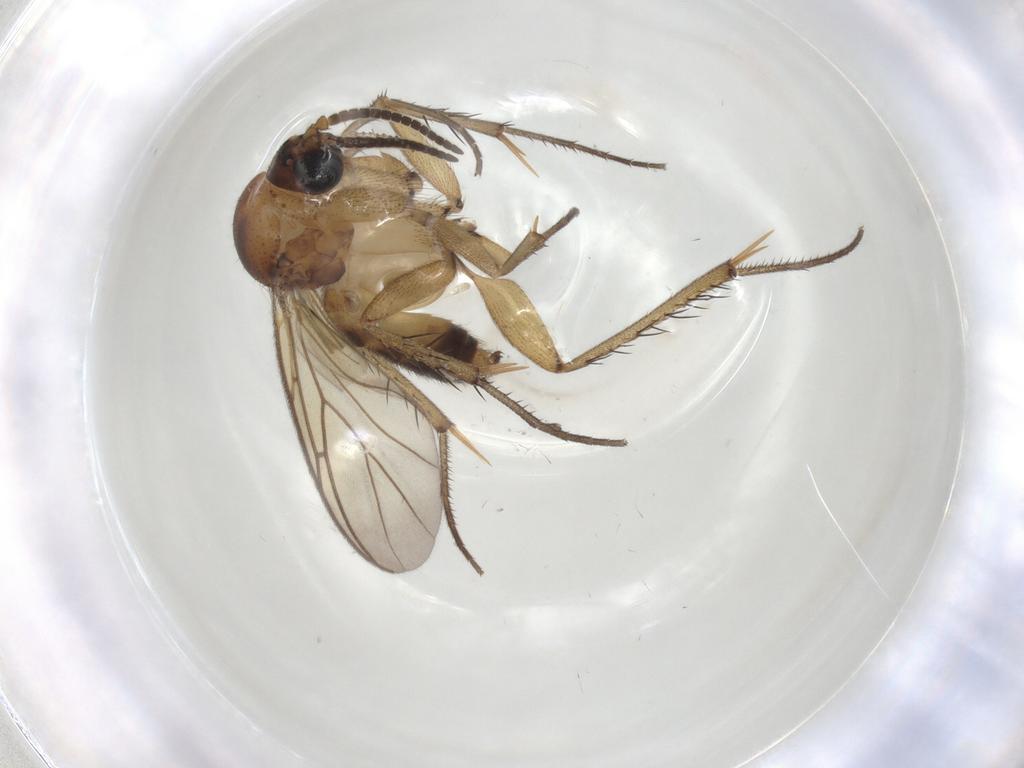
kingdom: Animalia
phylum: Arthropoda
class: Insecta
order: Diptera
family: Mycetophilidae
